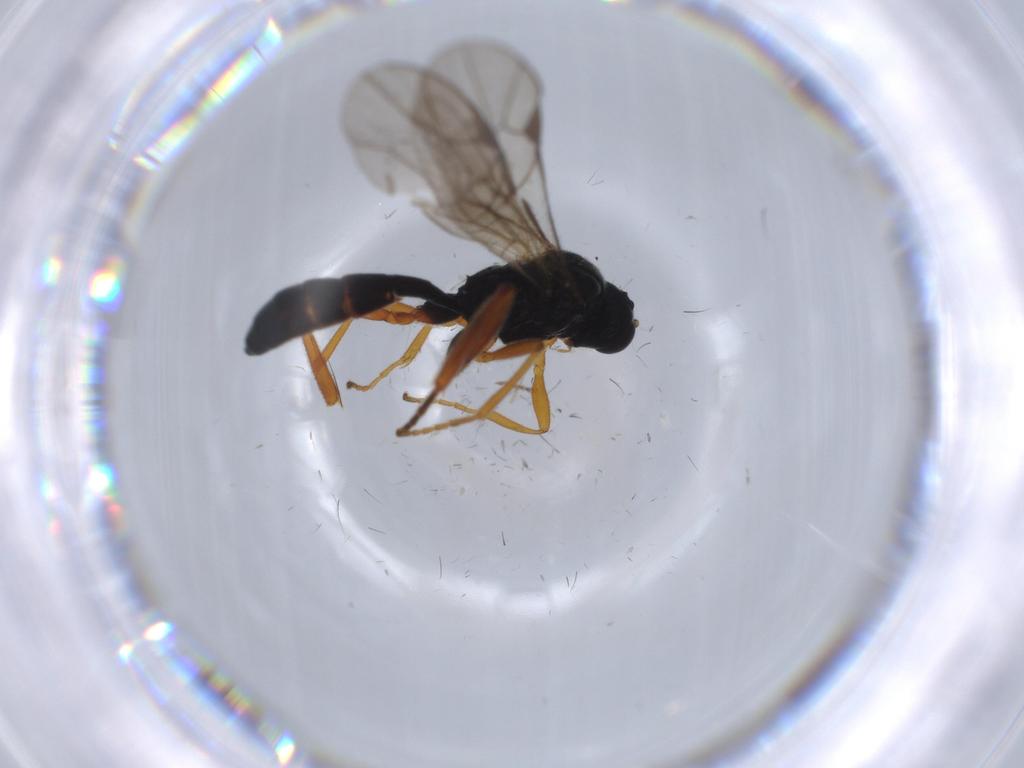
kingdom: Animalia
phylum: Arthropoda
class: Insecta
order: Hymenoptera
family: Ichneumonidae
